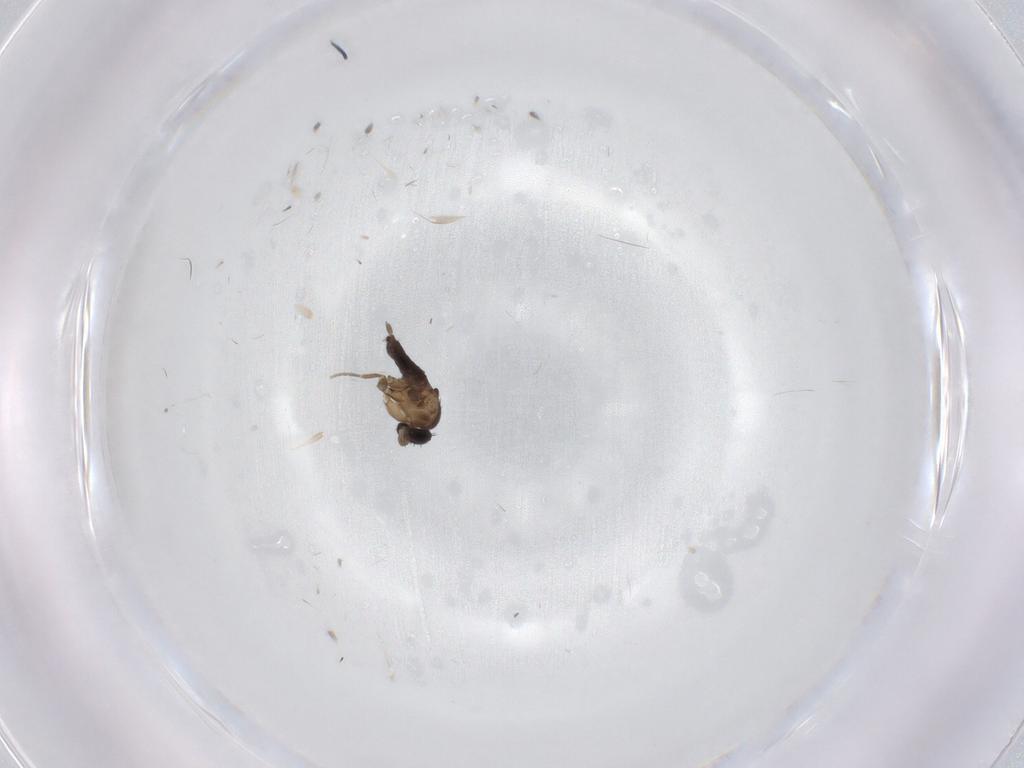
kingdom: Animalia
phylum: Arthropoda
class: Insecta
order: Diptera
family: Phoridae
